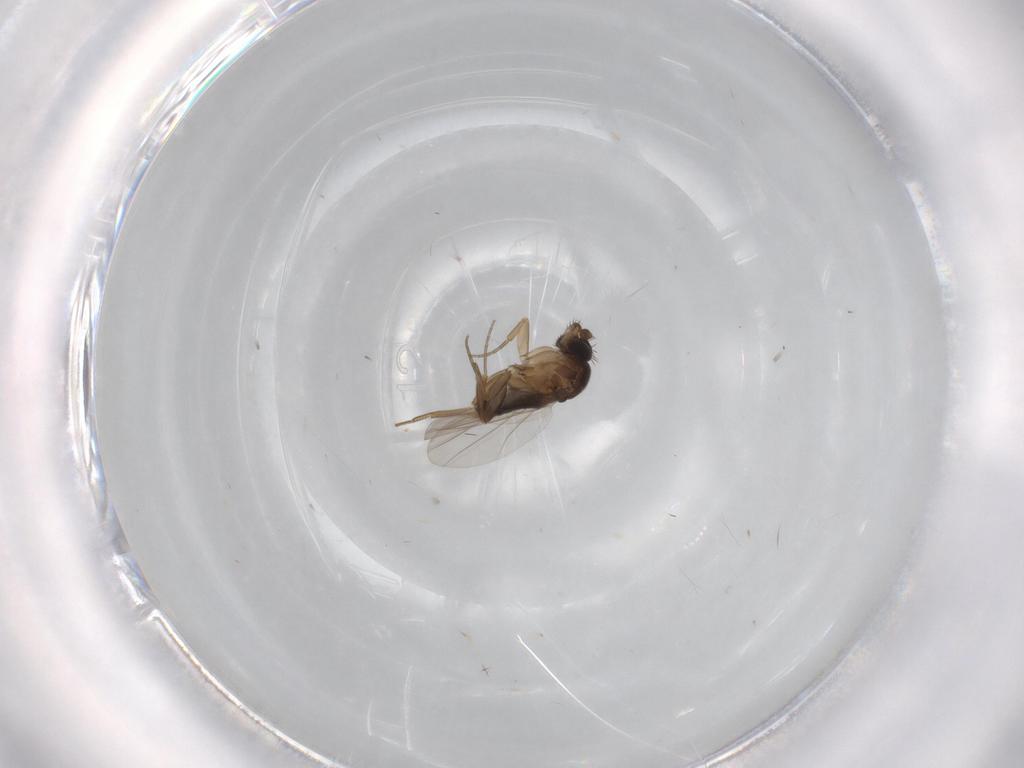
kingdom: Animalia
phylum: Arthropoda
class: Insecta
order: Diptera
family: Phoridae
